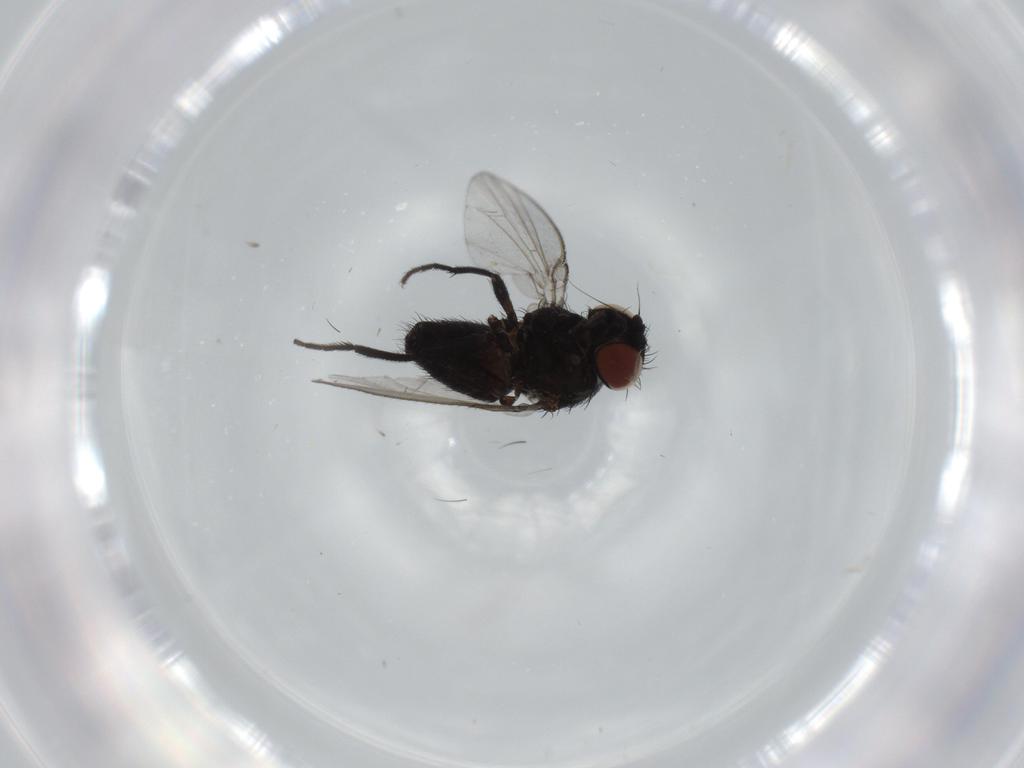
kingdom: Animalia
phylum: Arthropoda
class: Insecta
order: Diptera
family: Milichiidae
